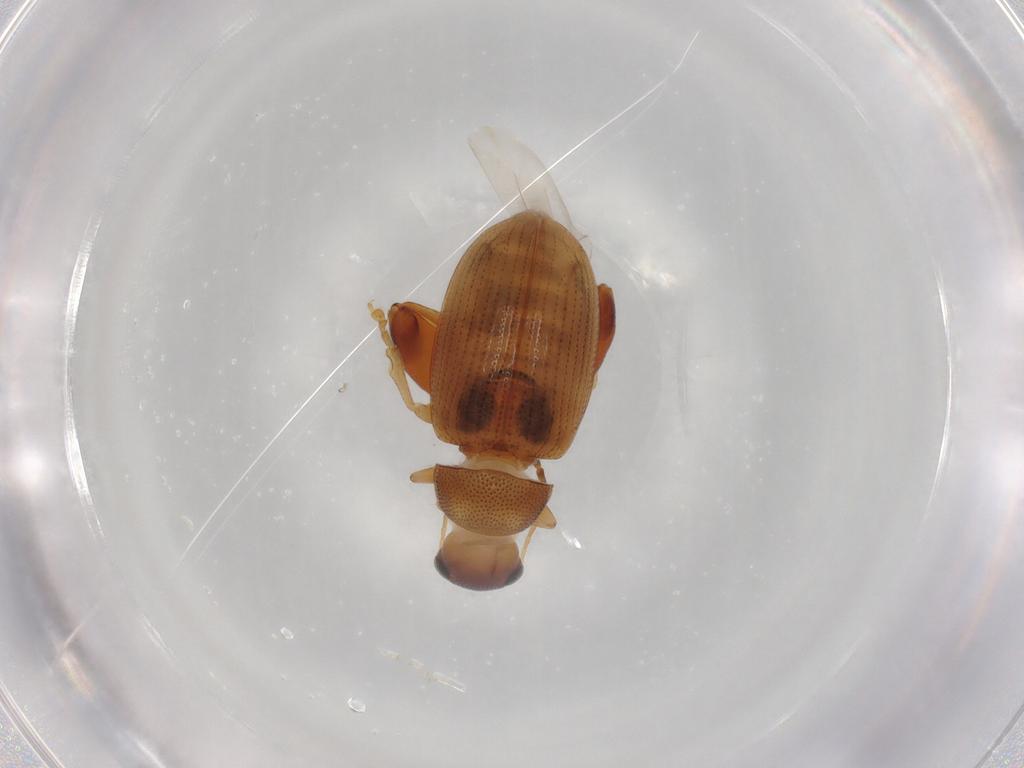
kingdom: Animalia
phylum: Arthropoda
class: Insecta
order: Coleoptera
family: Chrysomelidae
